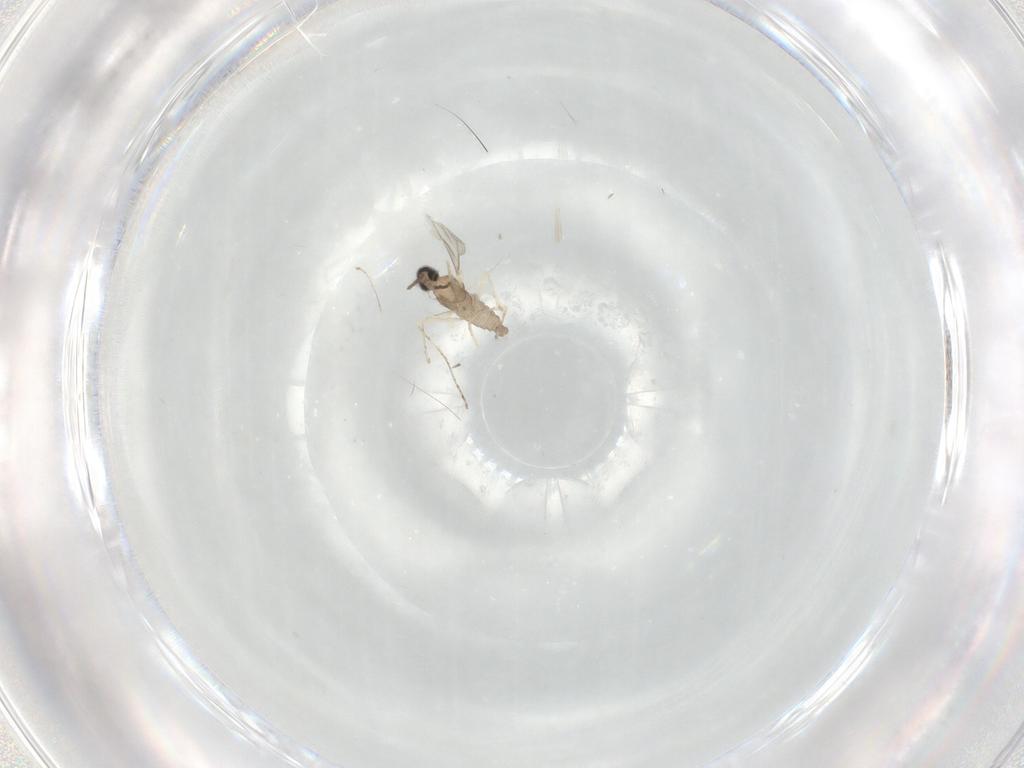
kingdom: Animalia
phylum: Arthropoda
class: Insecta
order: Diptera
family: Cecidomyiidae
